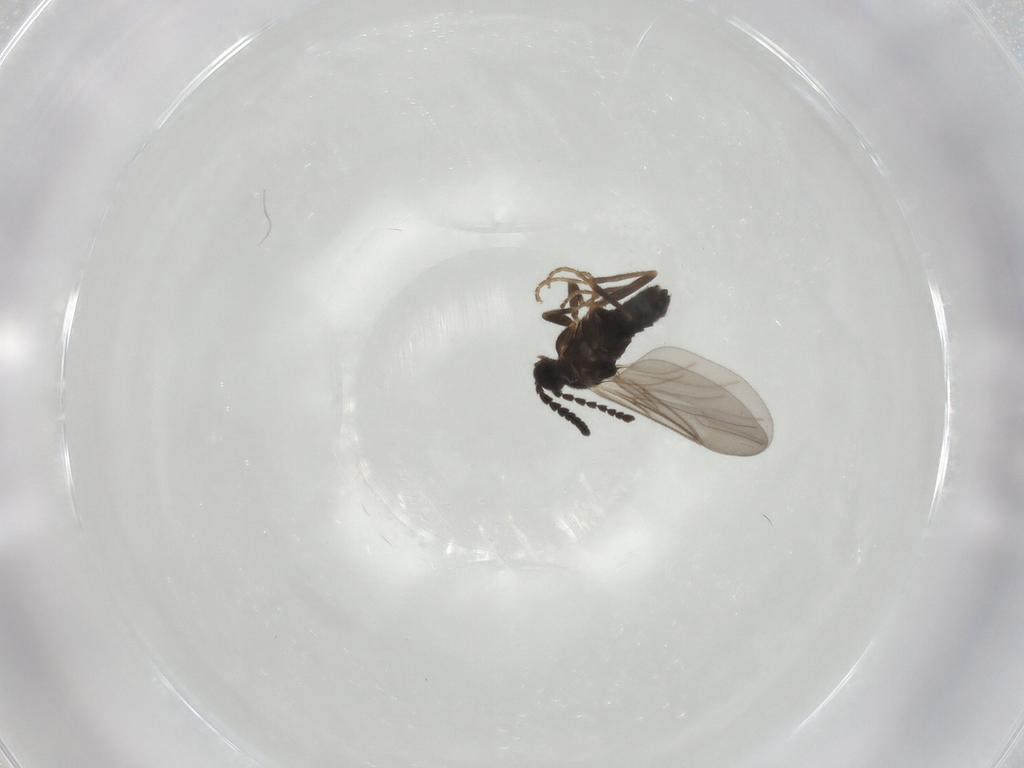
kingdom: Animalia
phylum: Arthropoda
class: Insecta
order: Diptera
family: Scatopsidae
